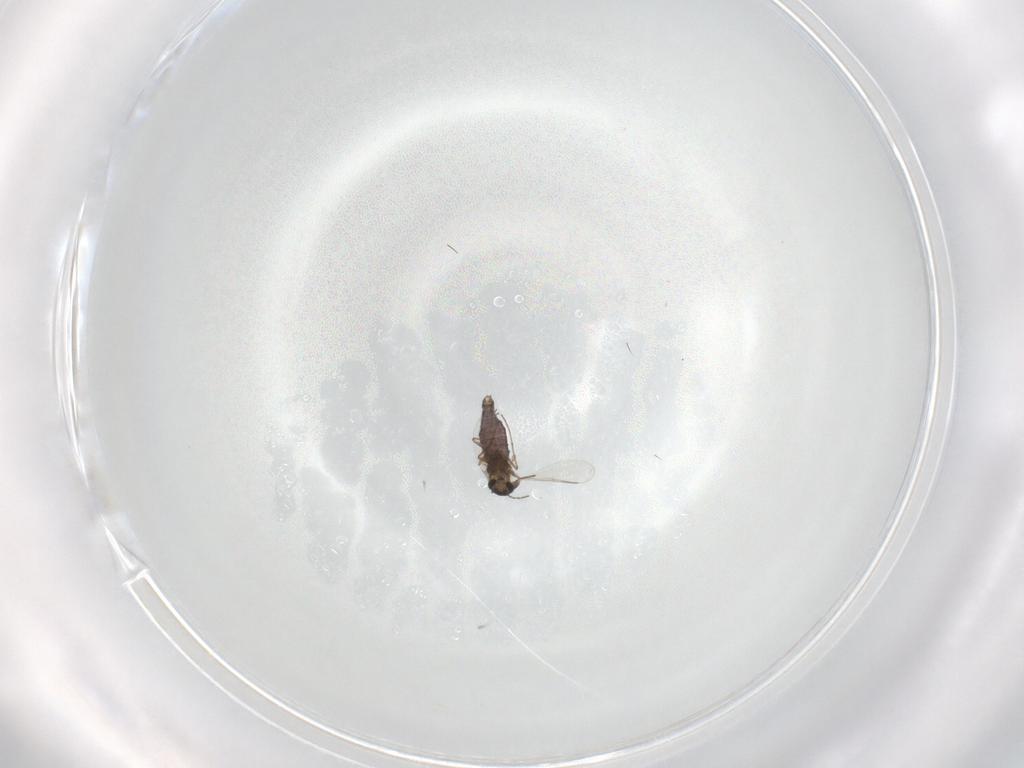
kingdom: Animalia
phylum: Arthropoda
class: Insecta
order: Diptera
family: Chironomidae
